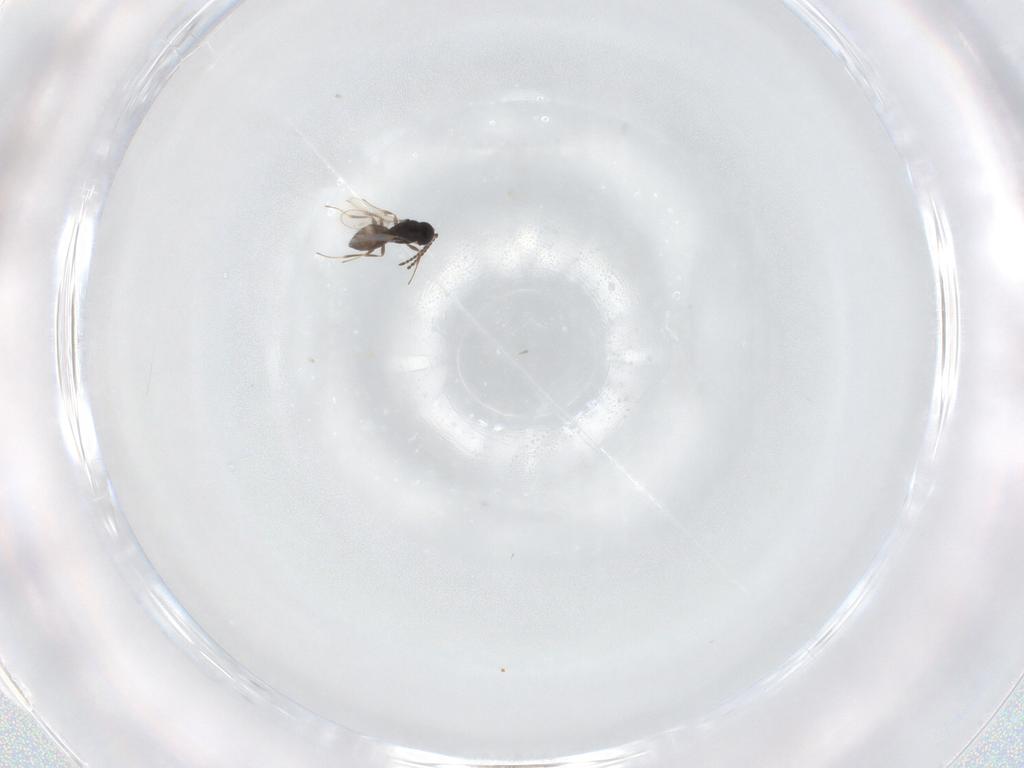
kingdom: Animalia
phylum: Arthropoda
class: Insecta
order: Hymenoptera
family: Scelionidae
